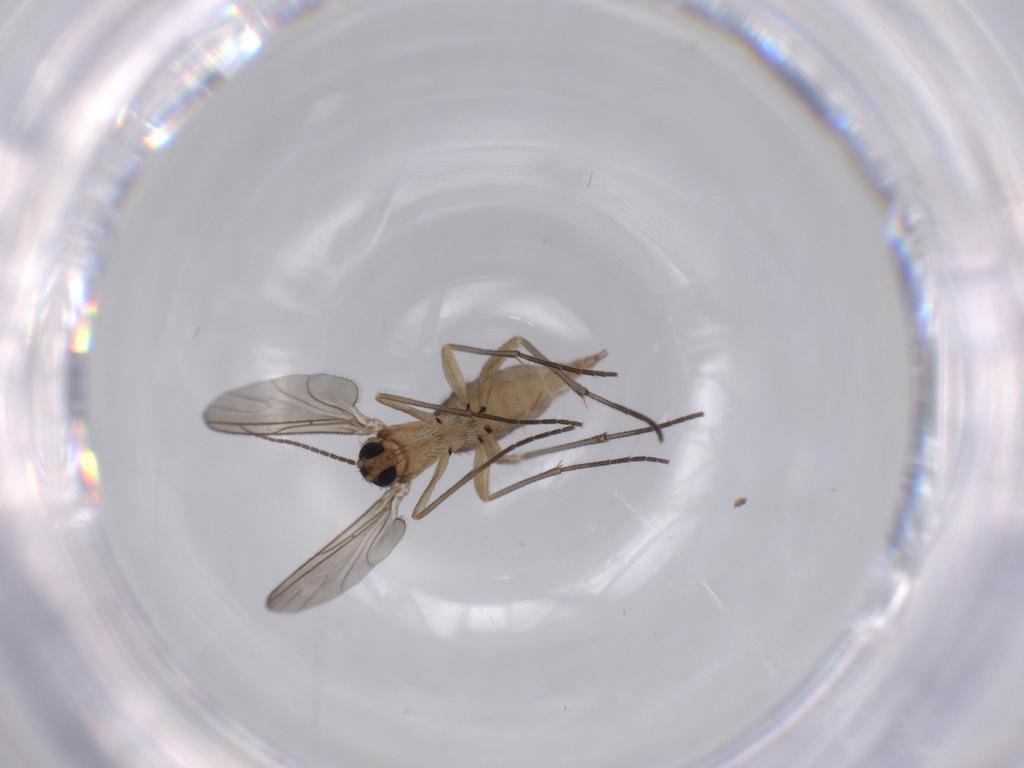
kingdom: Animalia
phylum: Arthropoda
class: Insecta
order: Diptera
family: Sciaridae
